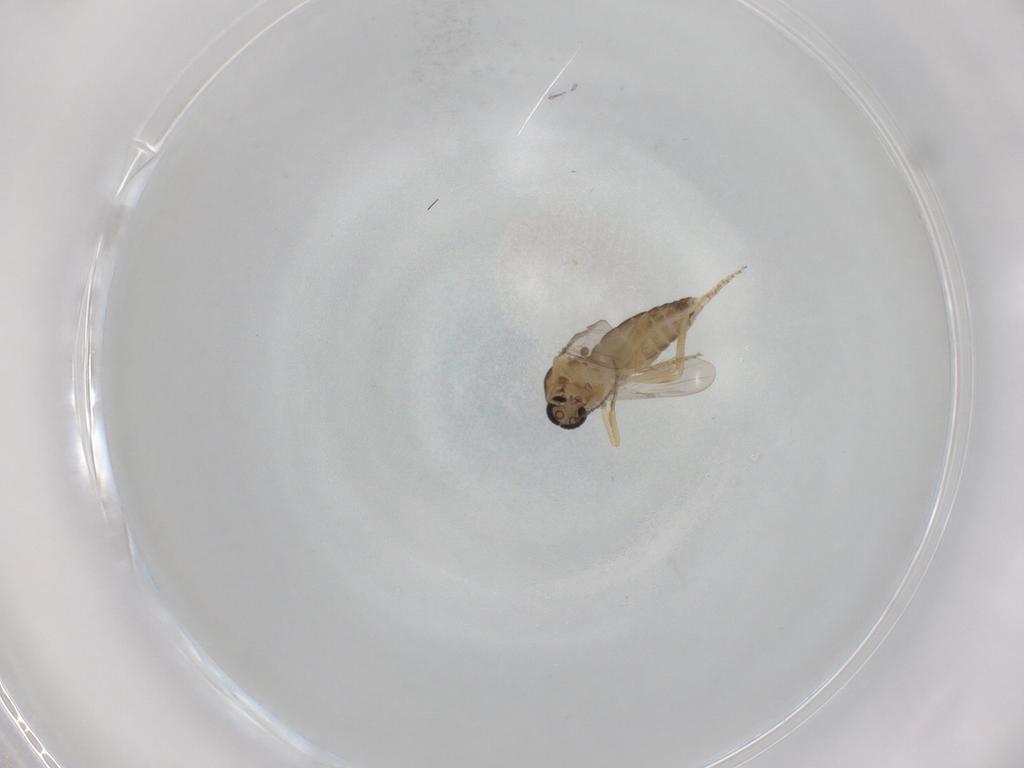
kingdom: Animalia
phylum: Arthropoda
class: Insecta
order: Diptera
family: Ceratopogonidae
